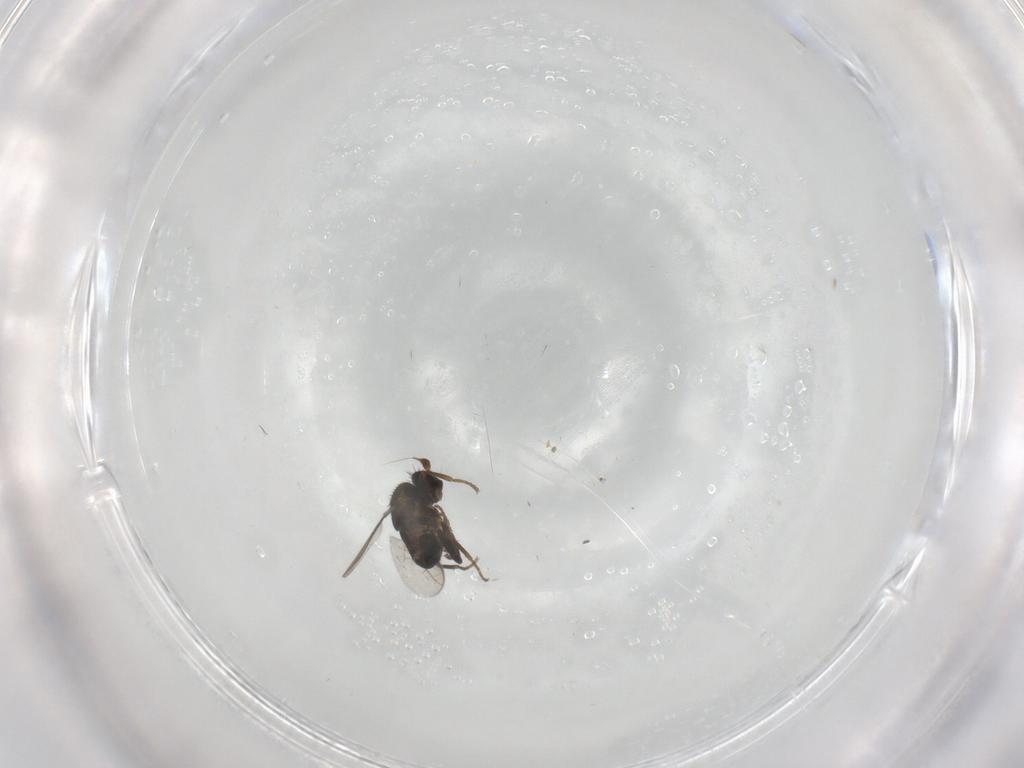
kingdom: Animalia
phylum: Arthropoda
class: Insecta
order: Diptera
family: Sphaeroceridae
